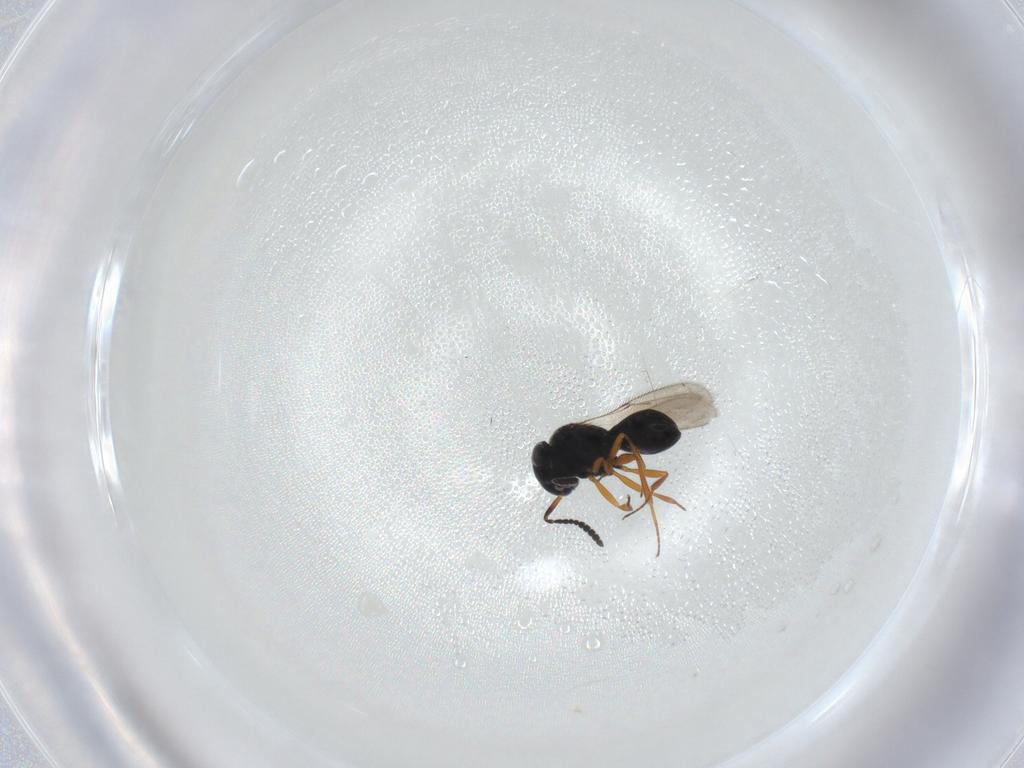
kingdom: Animalia
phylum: Arthropoda
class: Insecta
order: Hymenoptera
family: Scelionidae
